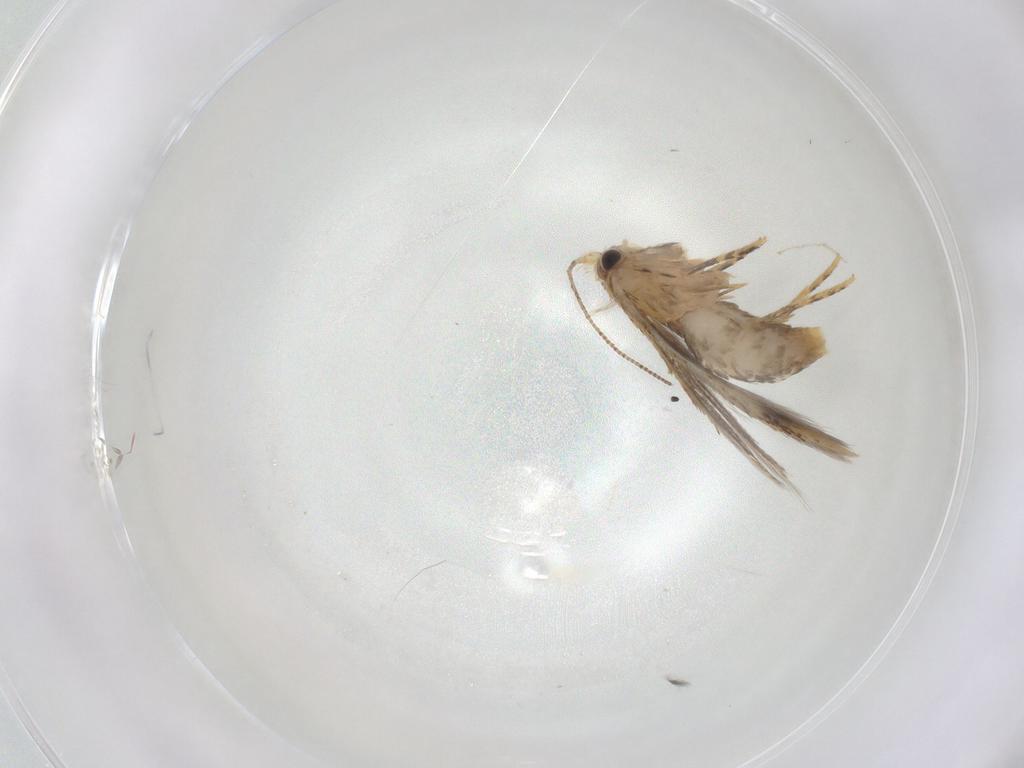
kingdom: Animalia
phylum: Arthropoda
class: Insecta
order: Lepidoptera
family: Tineidae
